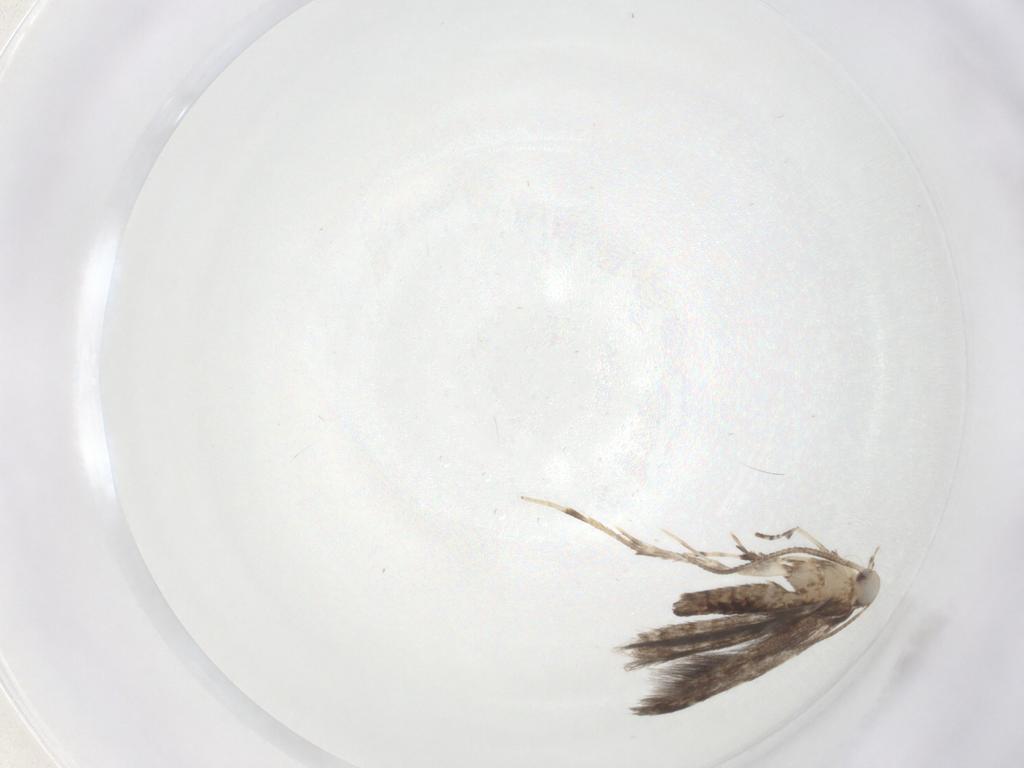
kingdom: Animalia
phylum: Arthropoda
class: Insecta
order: Lepidoptera
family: Gracillariidae
